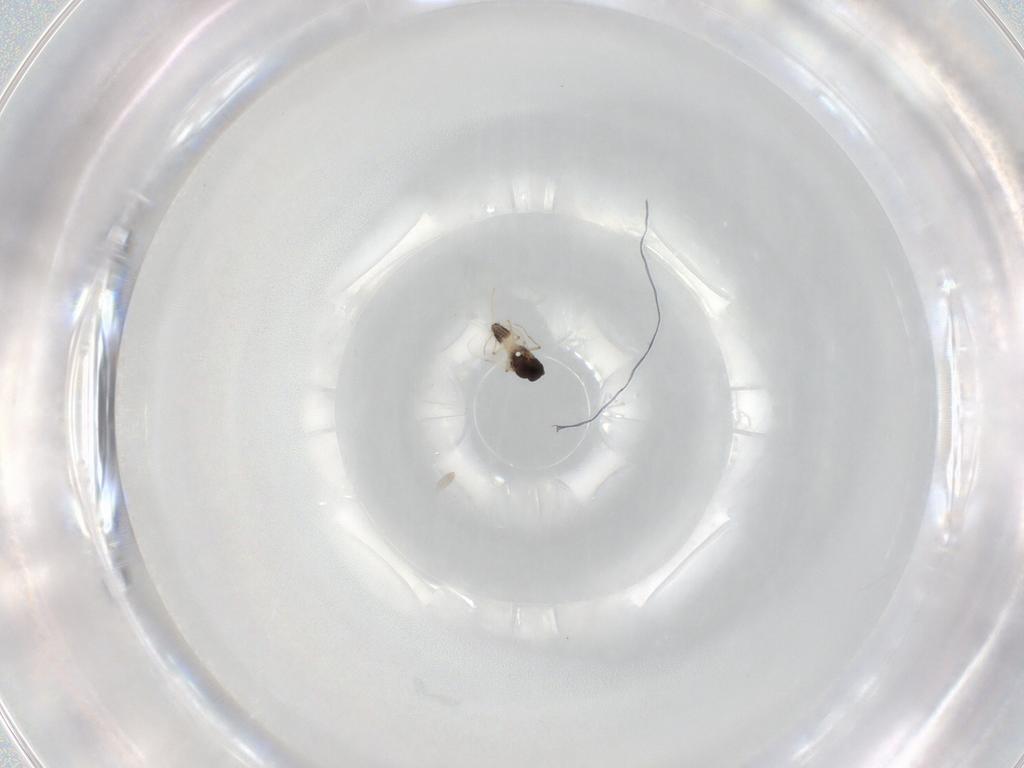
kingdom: Animalia
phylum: Arthropoda
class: Insecta
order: Diptera
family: Ceratopogonidae
